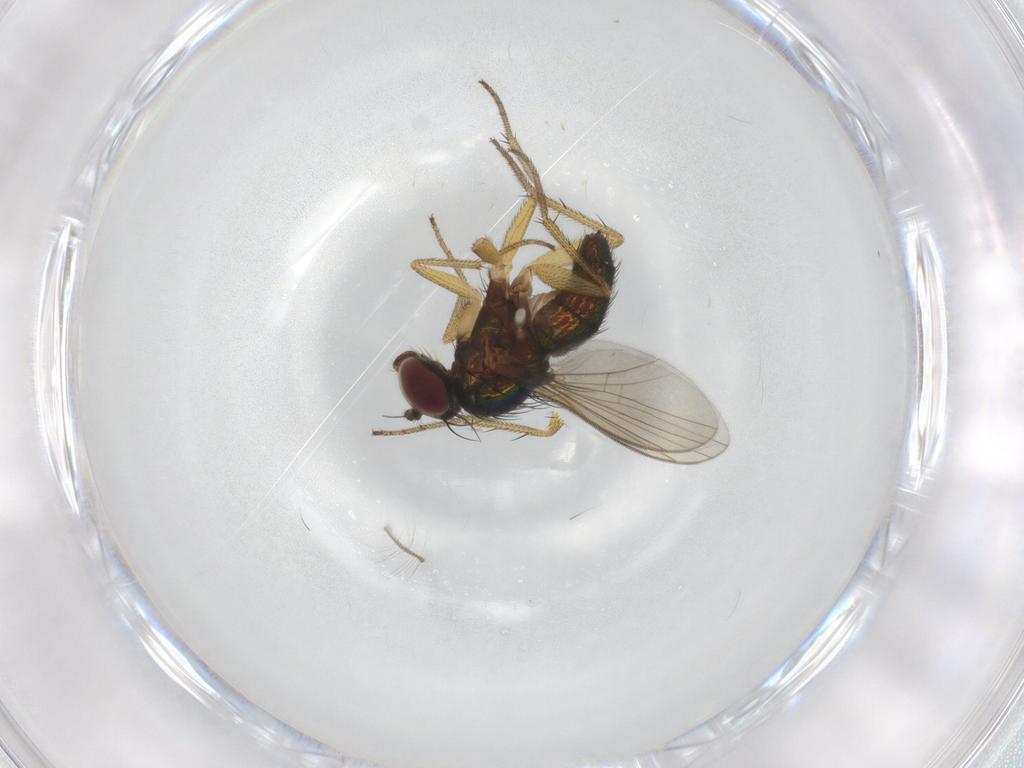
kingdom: Animalia
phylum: Arthropoda
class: Insecta
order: Diptera
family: Dolichopodidae
